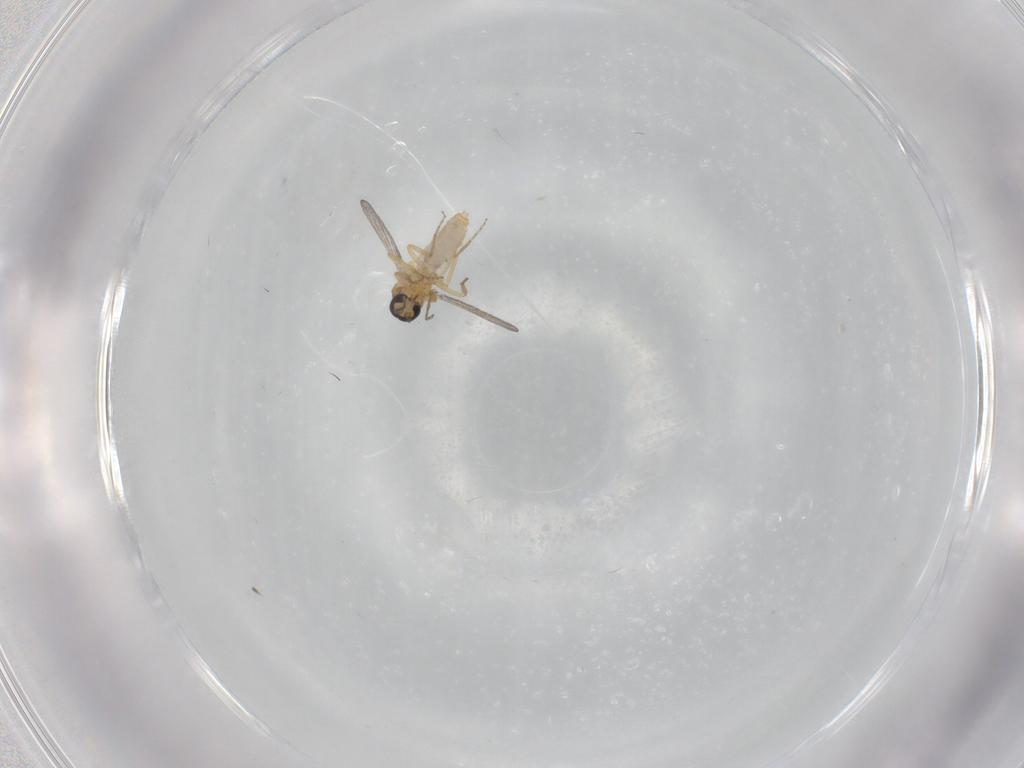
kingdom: Animalia
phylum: Arthropoda
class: Insecta
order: Diptera
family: Ceratopogonidae
